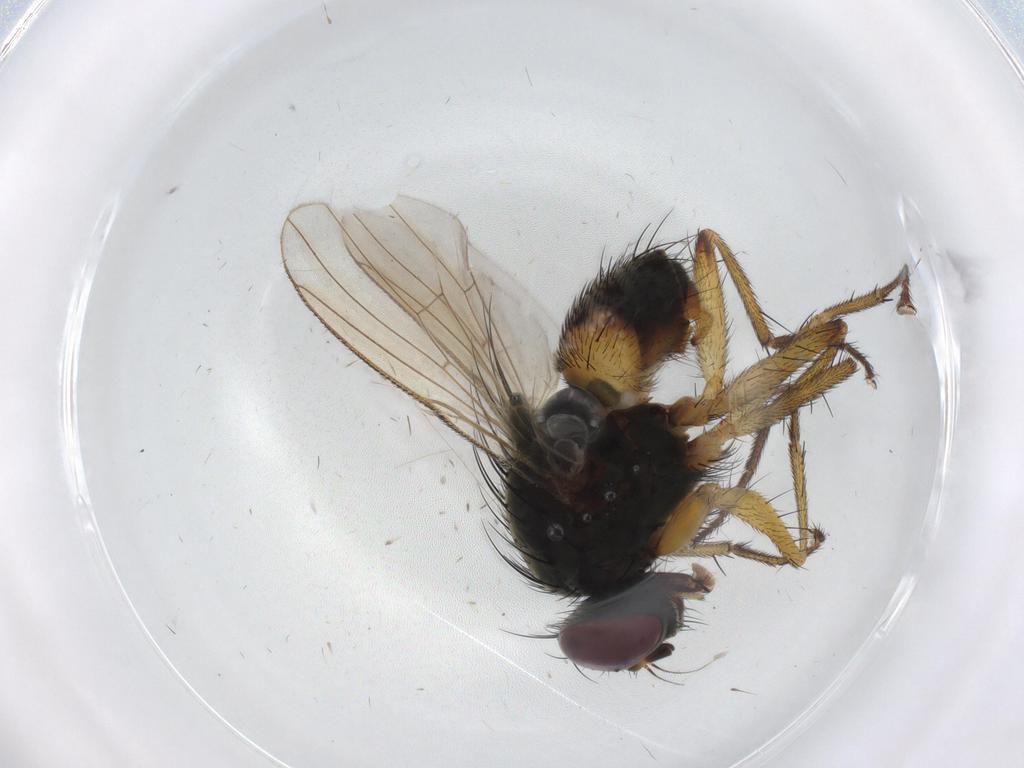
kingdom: Animalia
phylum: Arthropoda
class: Insecta
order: Diptera
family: Muscidae
